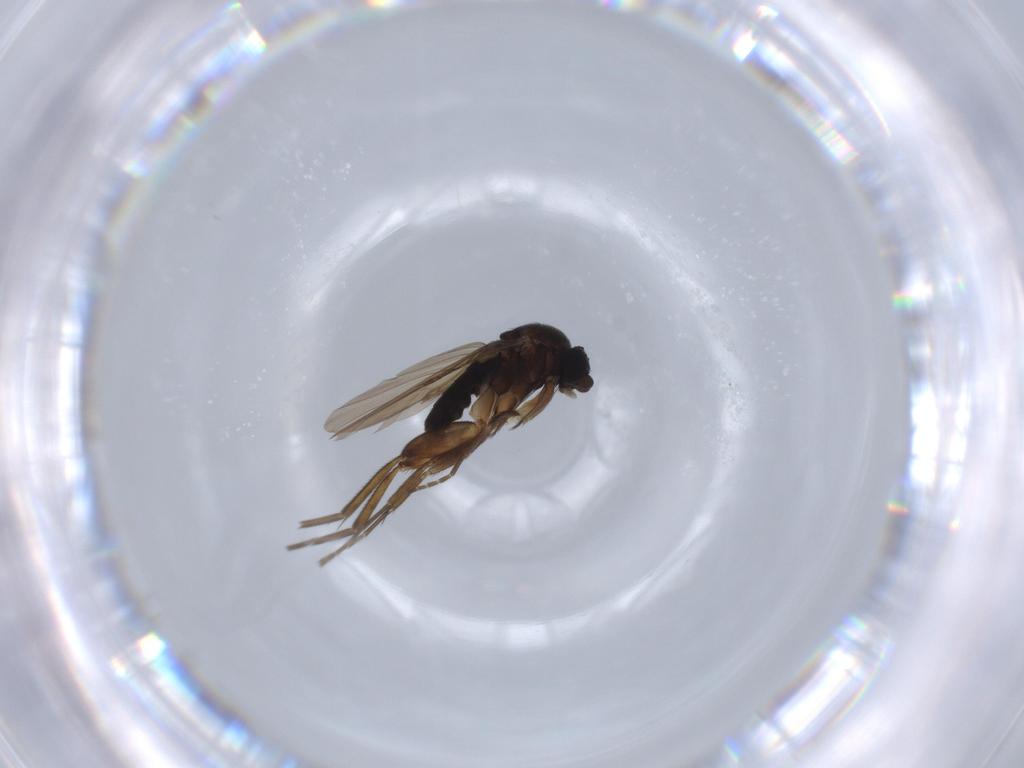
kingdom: Animalia
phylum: Arthropoda
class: Insecta
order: Diptera
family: Phoridae
